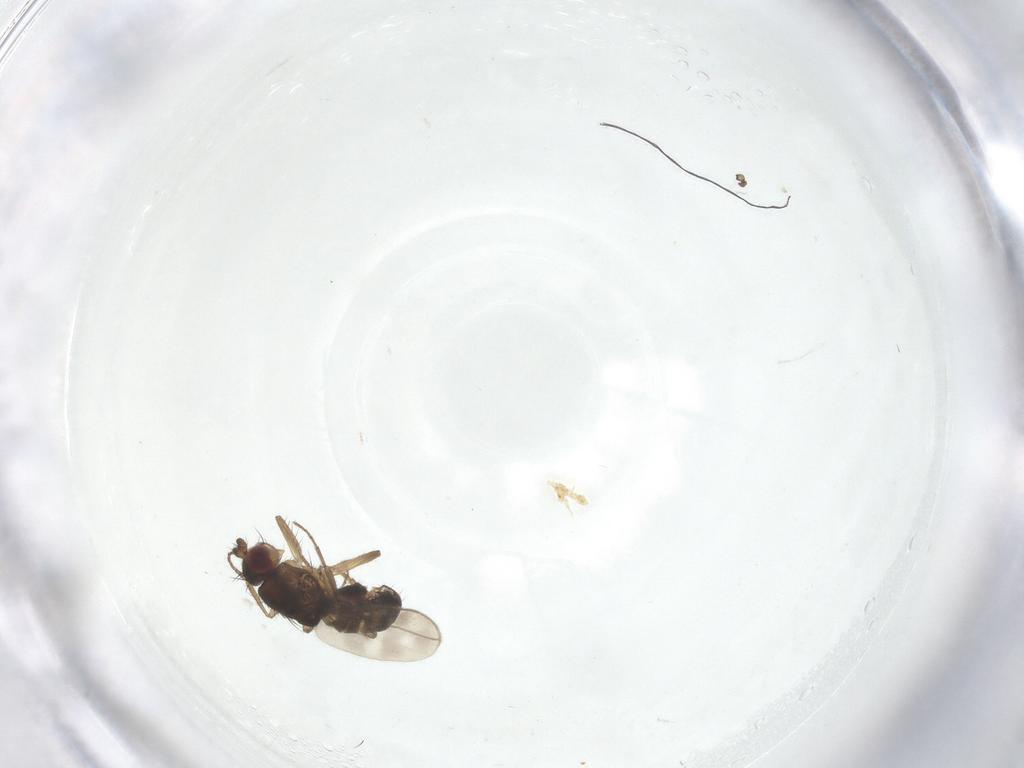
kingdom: Animalia
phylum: Arthropoda
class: Insecta
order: Diptera
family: Sphaeroceridae
